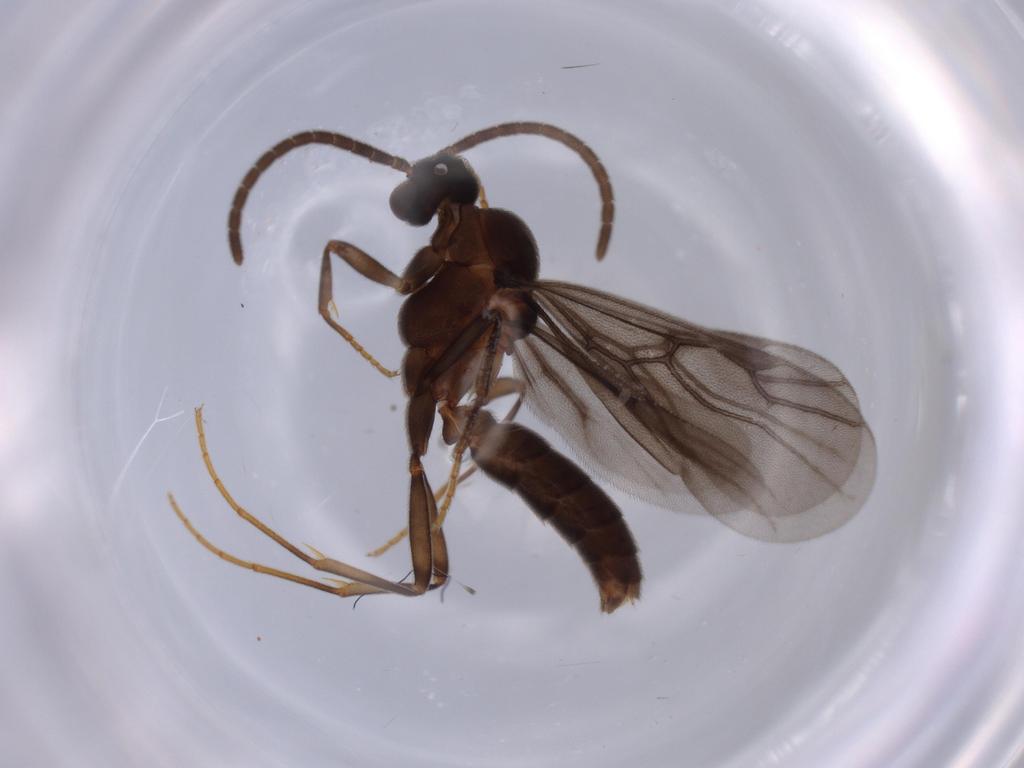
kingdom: Animalia
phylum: Arthropoda
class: Insecta
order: Hymenoptera
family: Formicidae
